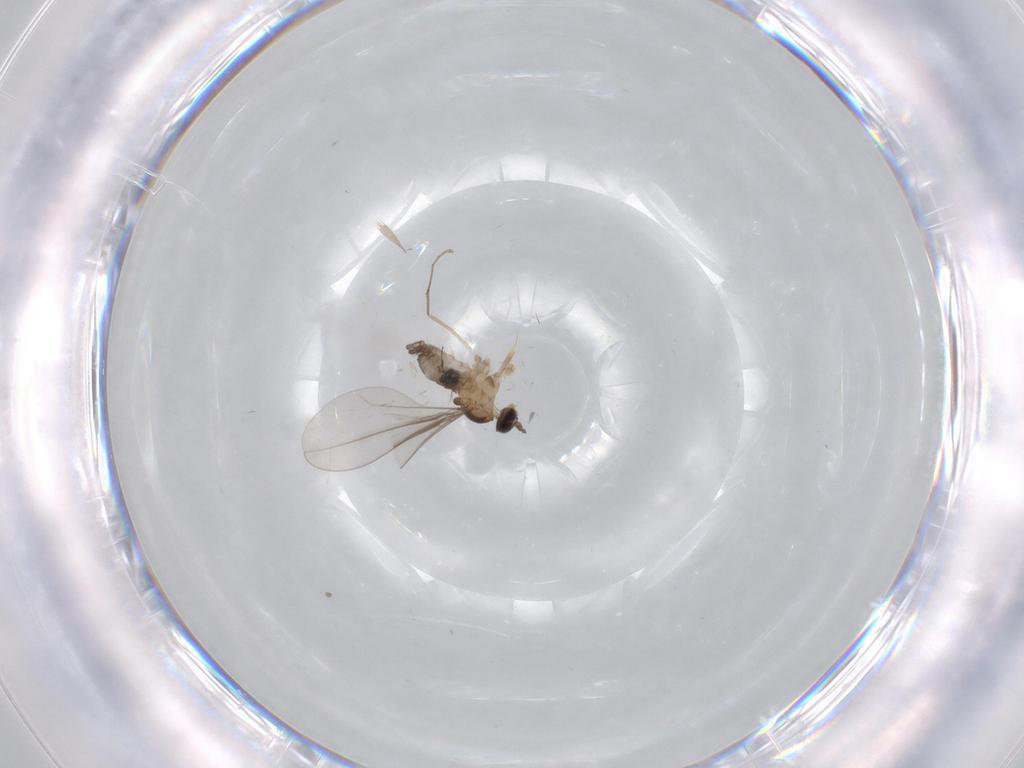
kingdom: Animalia
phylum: Arthropoda
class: Insecta
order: Diptera
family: Cecidomyiidae
